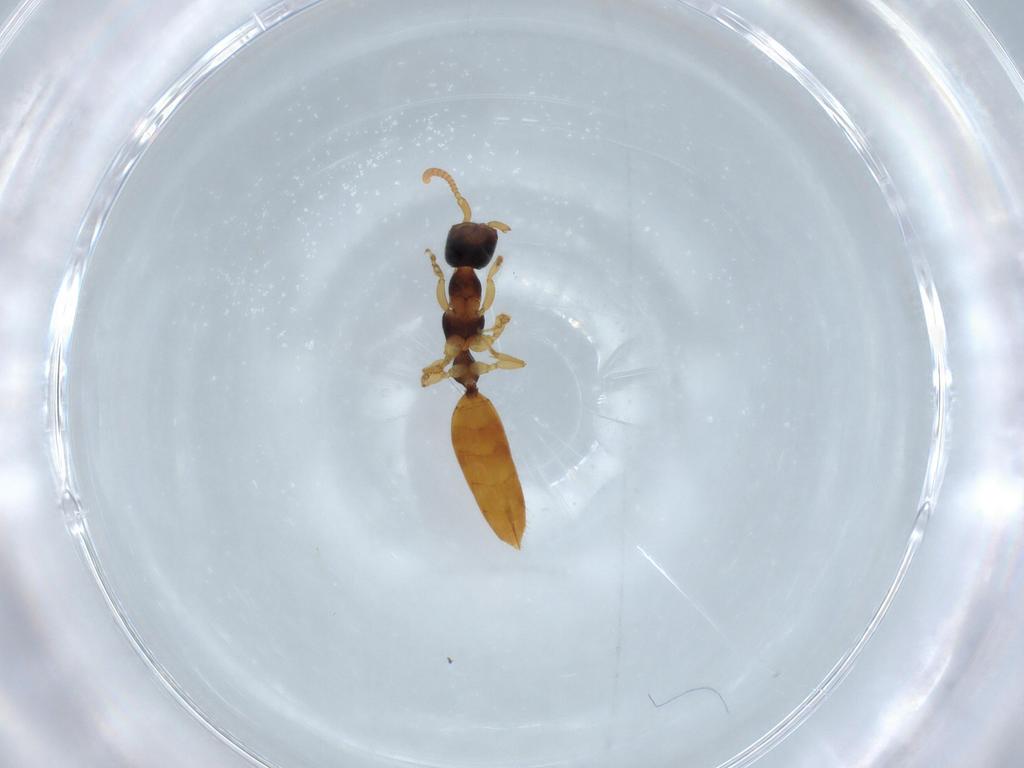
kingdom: Animalia
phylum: Arthropoda
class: Insecta
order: Hymenoptera
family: Bethylidae
